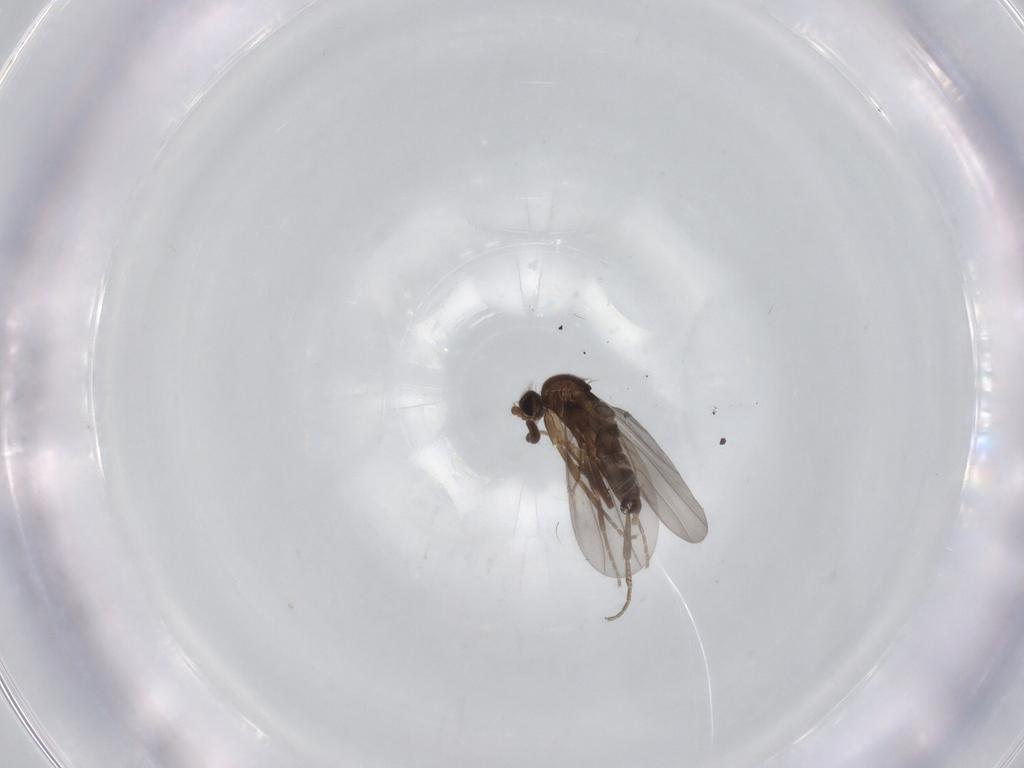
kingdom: Animalia
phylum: Arthropoda
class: Insecta
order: Diptera
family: Phoridae
